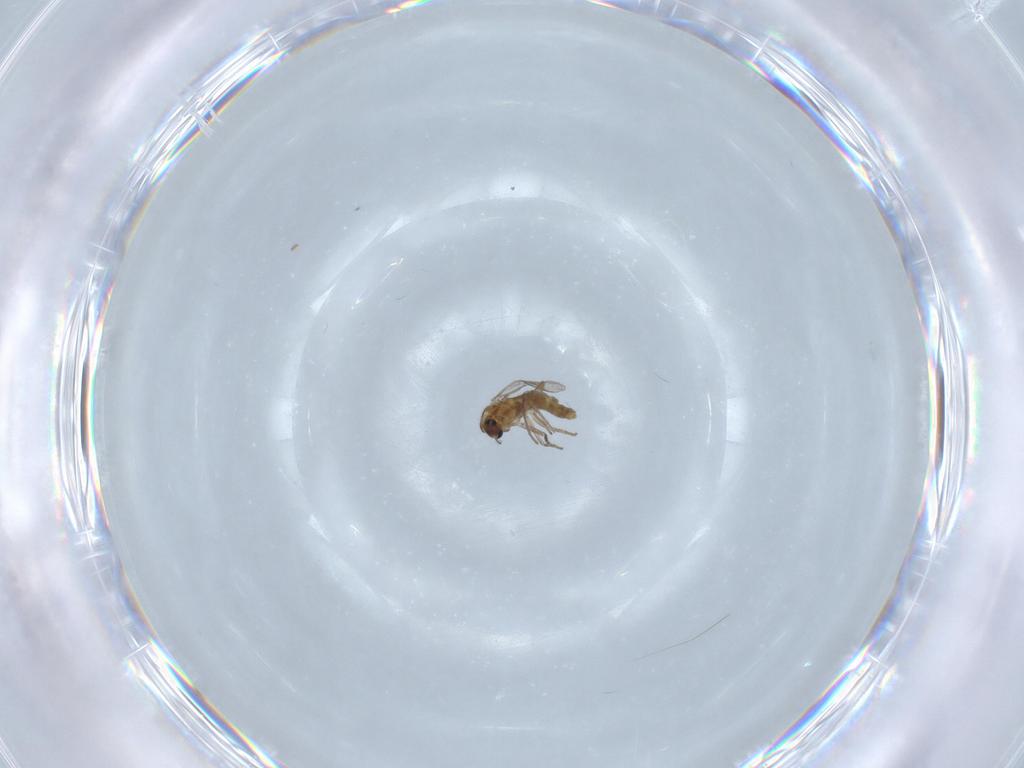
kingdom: Animalia
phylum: Arthropoda
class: Insecta
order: Diptera
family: Chironomidae
